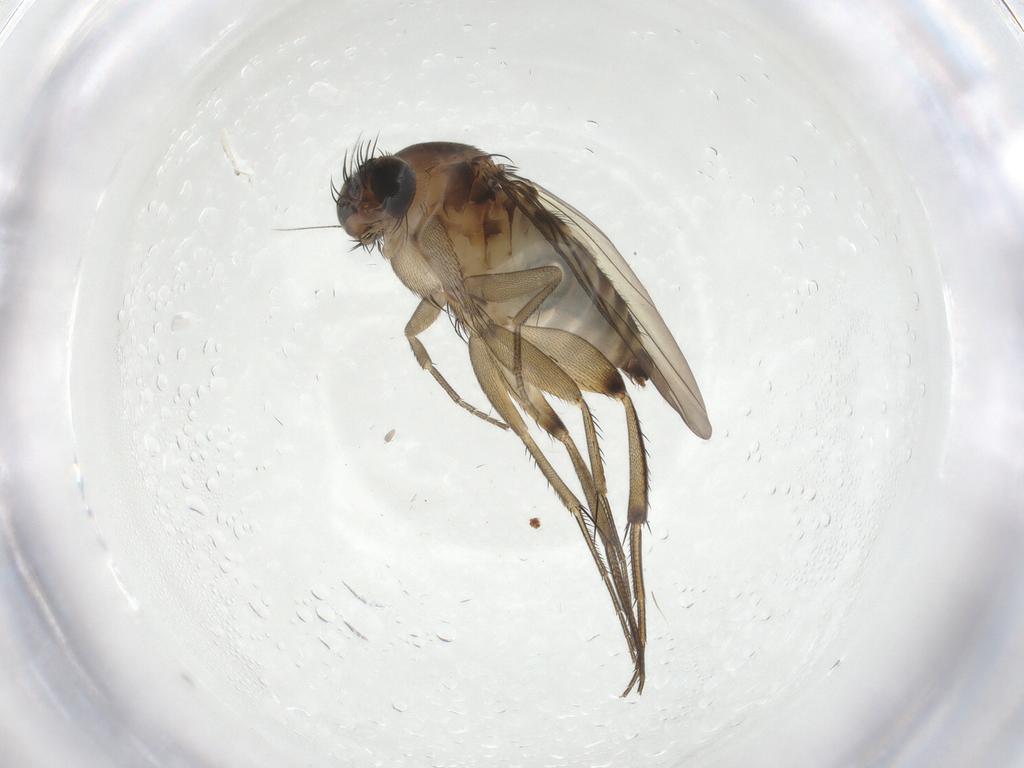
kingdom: Animalia
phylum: Arthropoda
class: Insecta
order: Diptera
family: Phoridae
